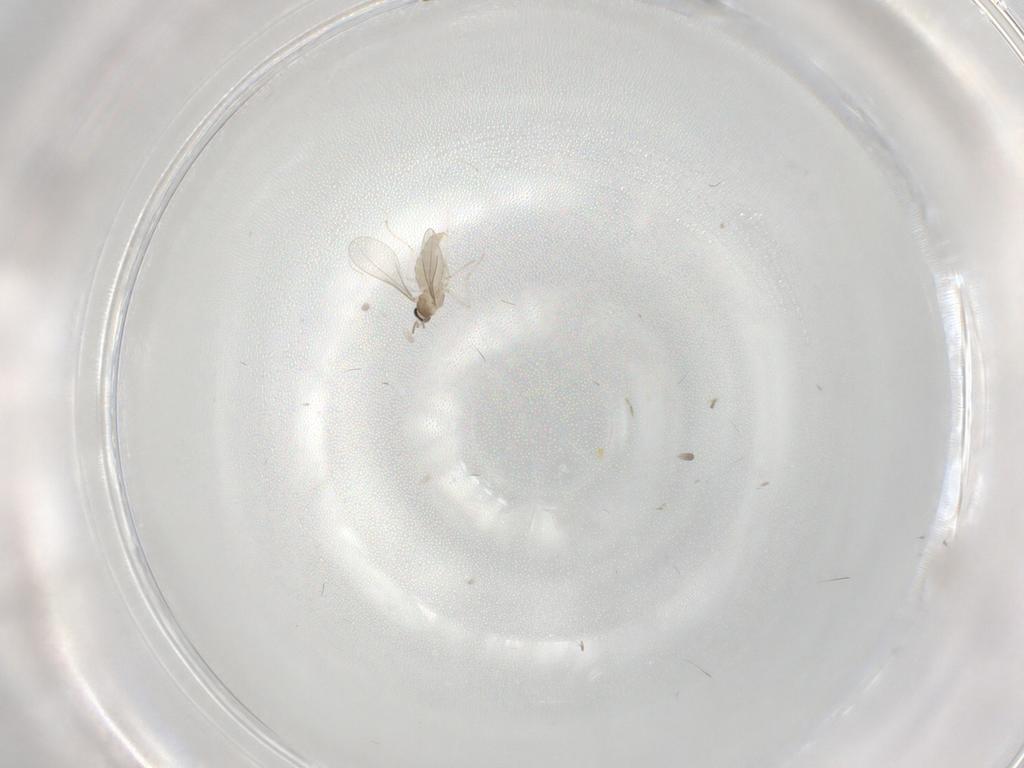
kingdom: Animalia
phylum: Arthropoda
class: Insecta
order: Diptera
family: Cecidomyiidae
